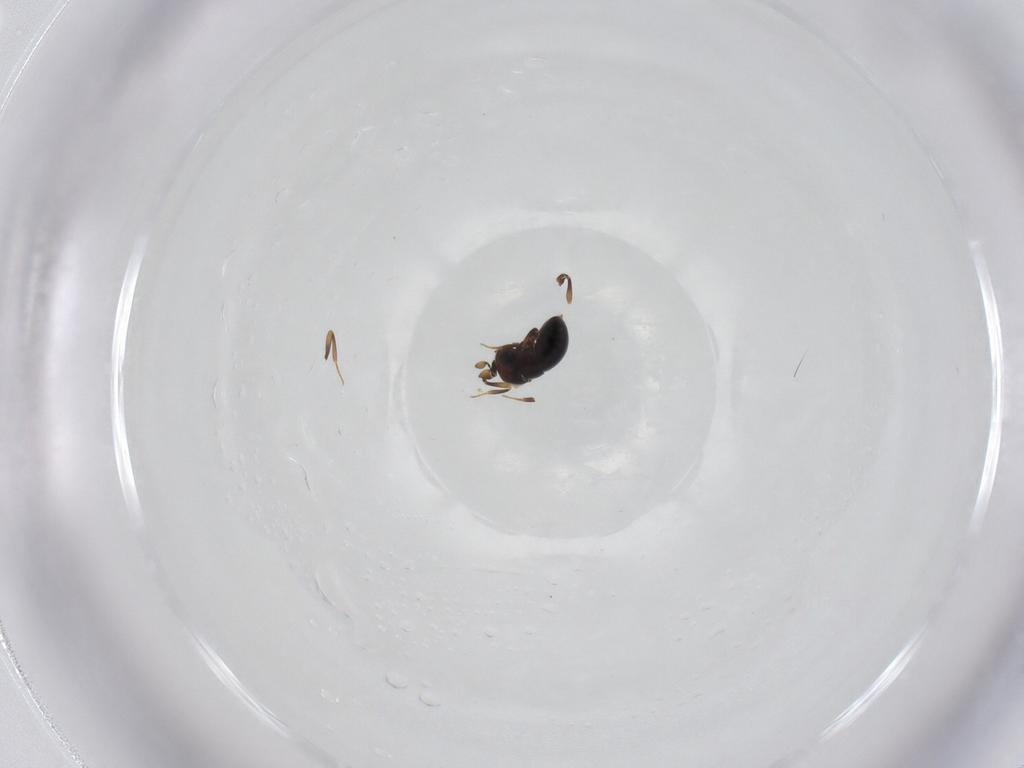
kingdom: Animalia
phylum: Arthropoda
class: Insecta
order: Hymenoptera
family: Scelionidae
